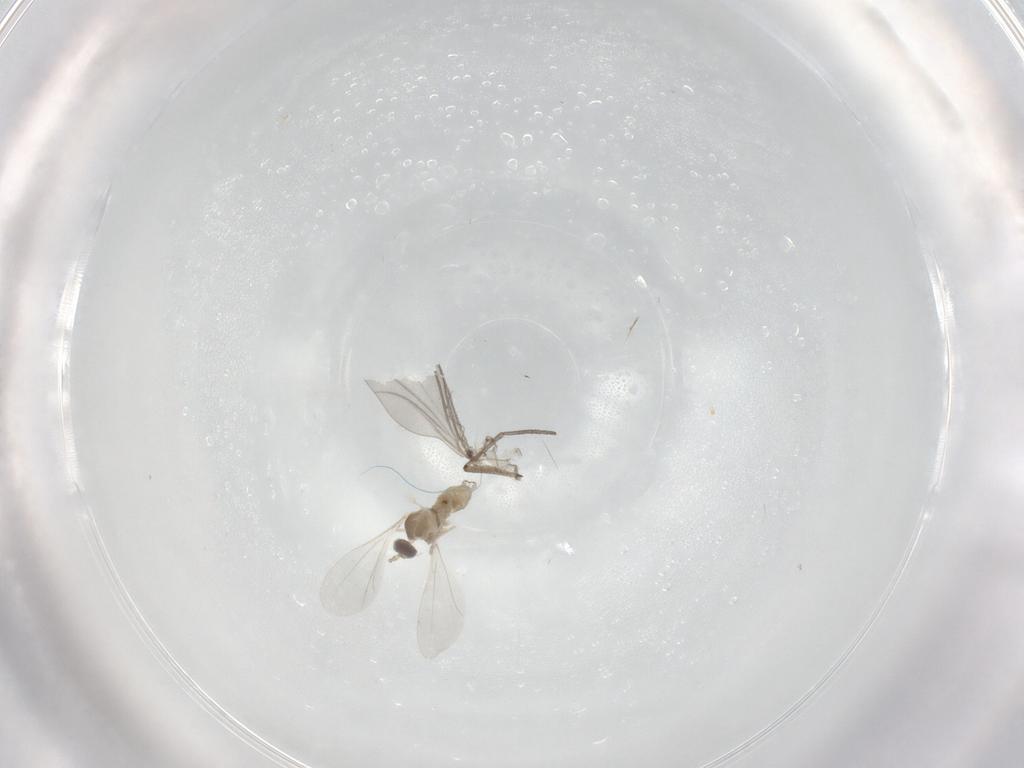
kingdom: Animalia
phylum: Arthropoda
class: Insecta
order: Diptera
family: Cecidomyiidae
